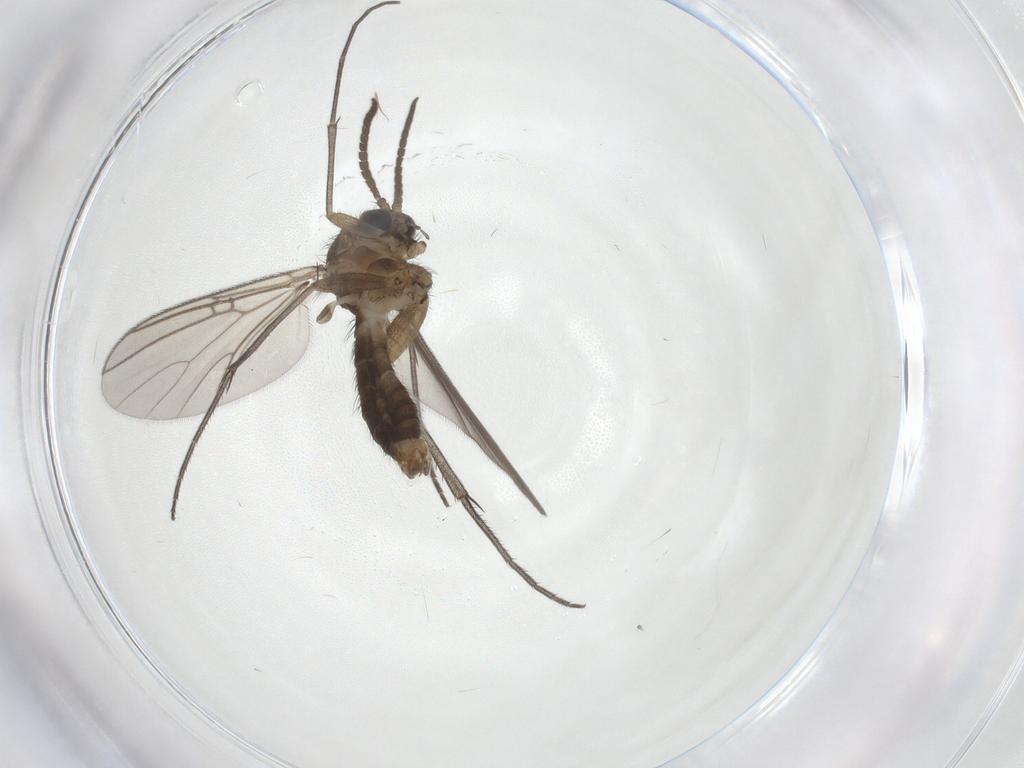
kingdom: Animalia
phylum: Arthropoda
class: Insecta
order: Diptera
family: Mycetophilidae
